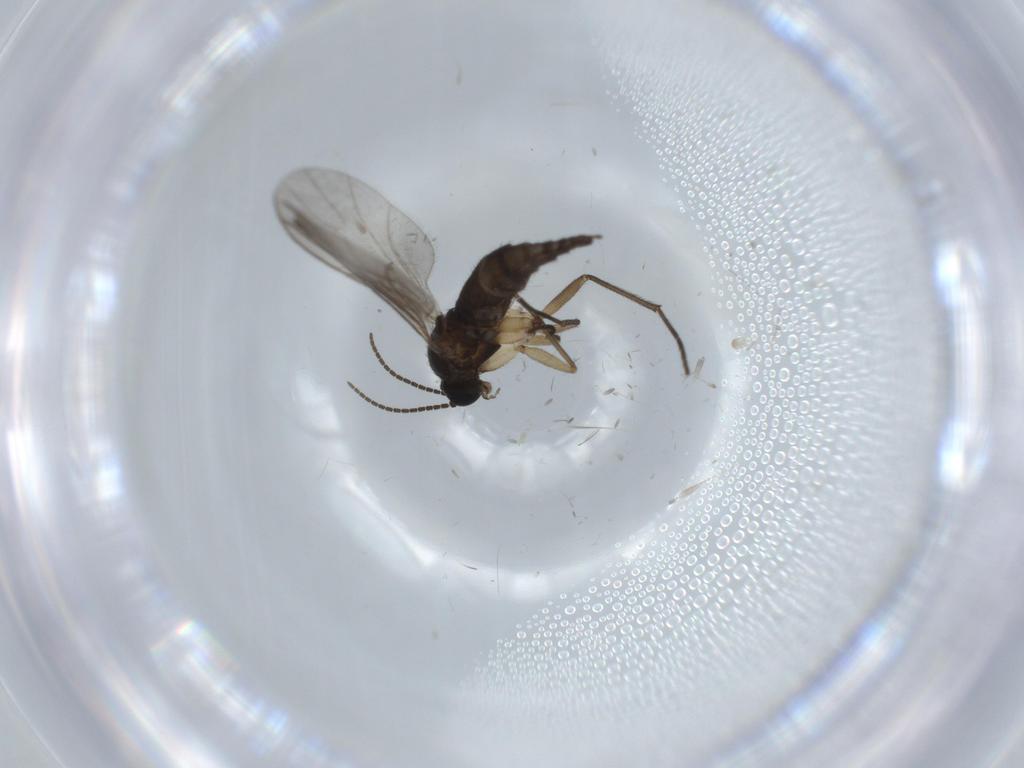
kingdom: Animalia
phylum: Arthropoda
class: Insecta
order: Diptera
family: Sciaridae
